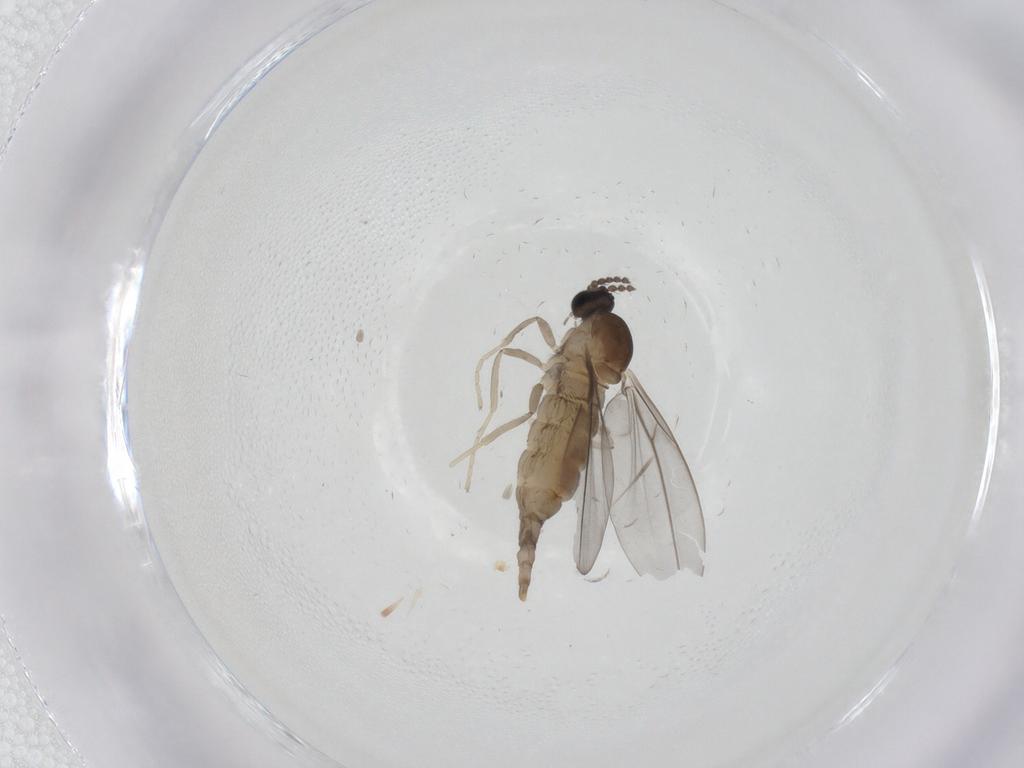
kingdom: Animalia
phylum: Arthropoda
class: Insecta
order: Diptera
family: Cecidomyiidae
